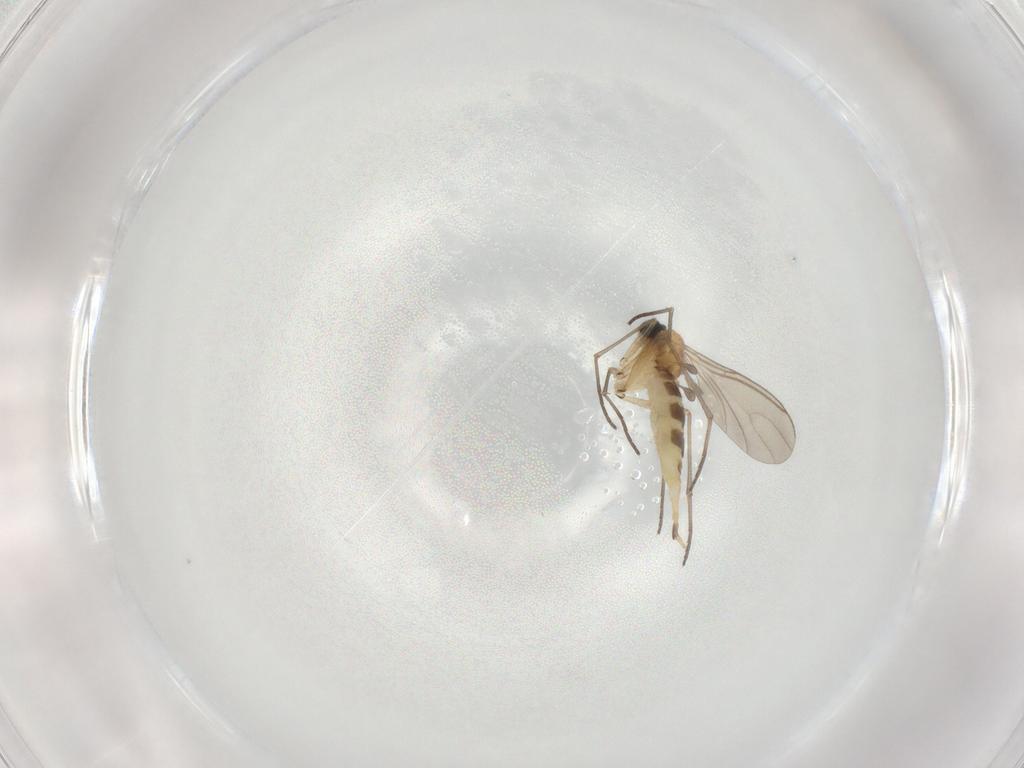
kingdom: Animalia
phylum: Arthropoda
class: Insecta
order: Diptera
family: Sciaridae
